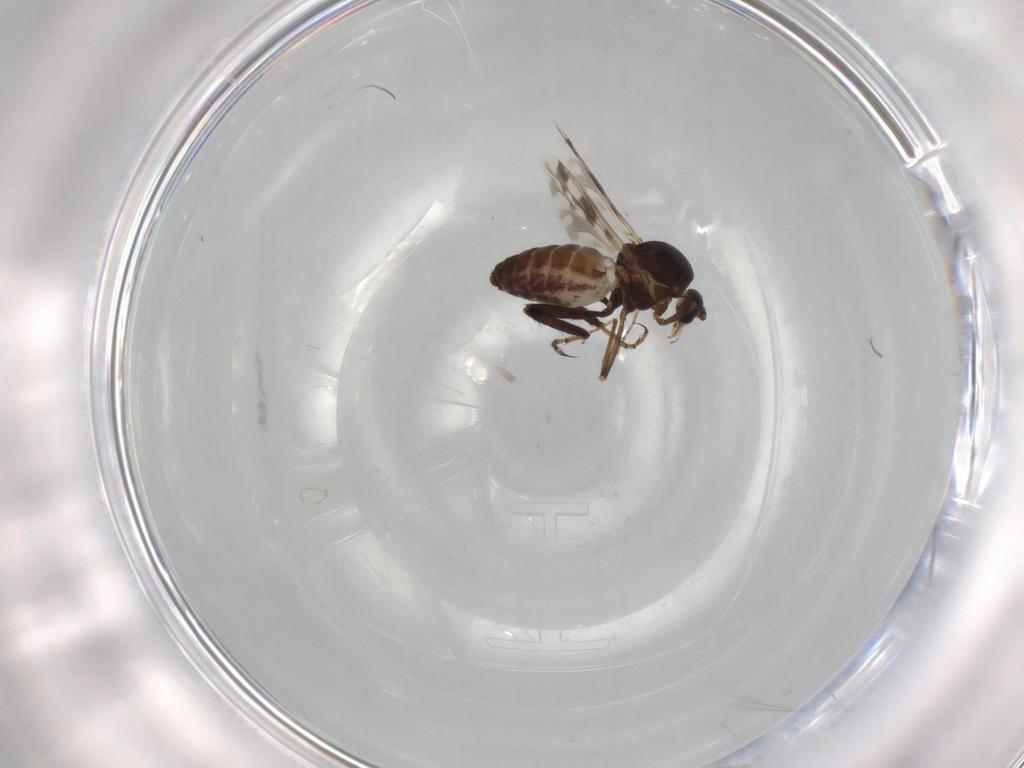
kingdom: Animalia
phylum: Arthropoda
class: Insecta
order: Diptera
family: Ceratopogonidae
